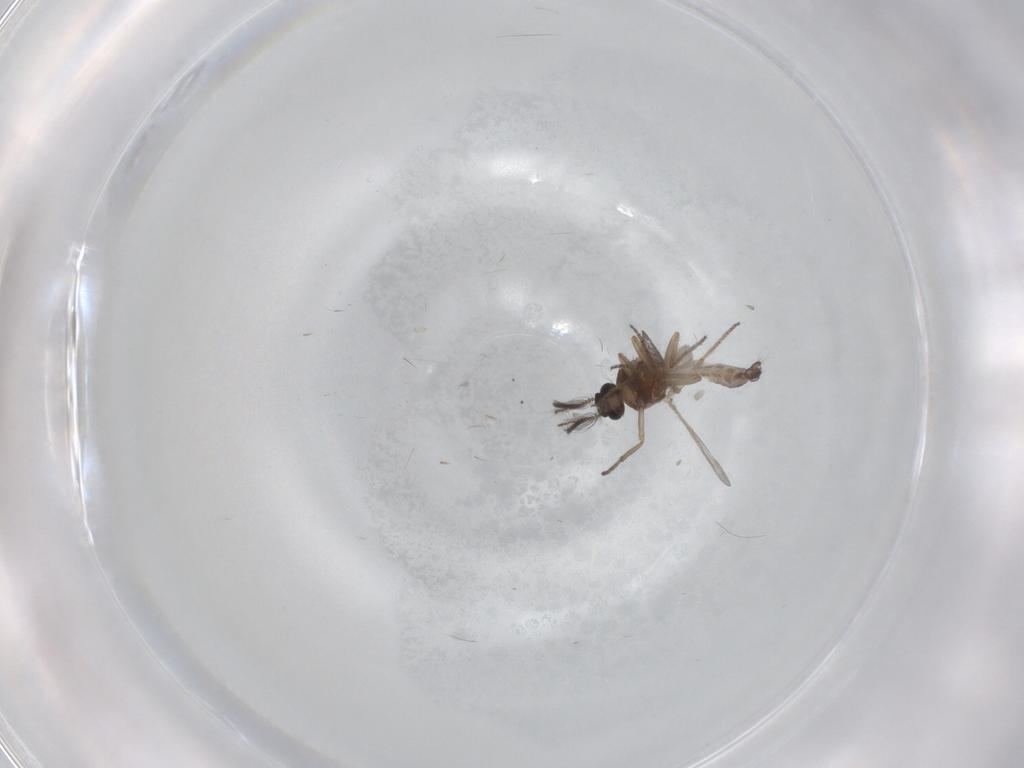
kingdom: Animalia
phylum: Arthropoda
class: Insecta
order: Diptera
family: Ceratopogonidae
